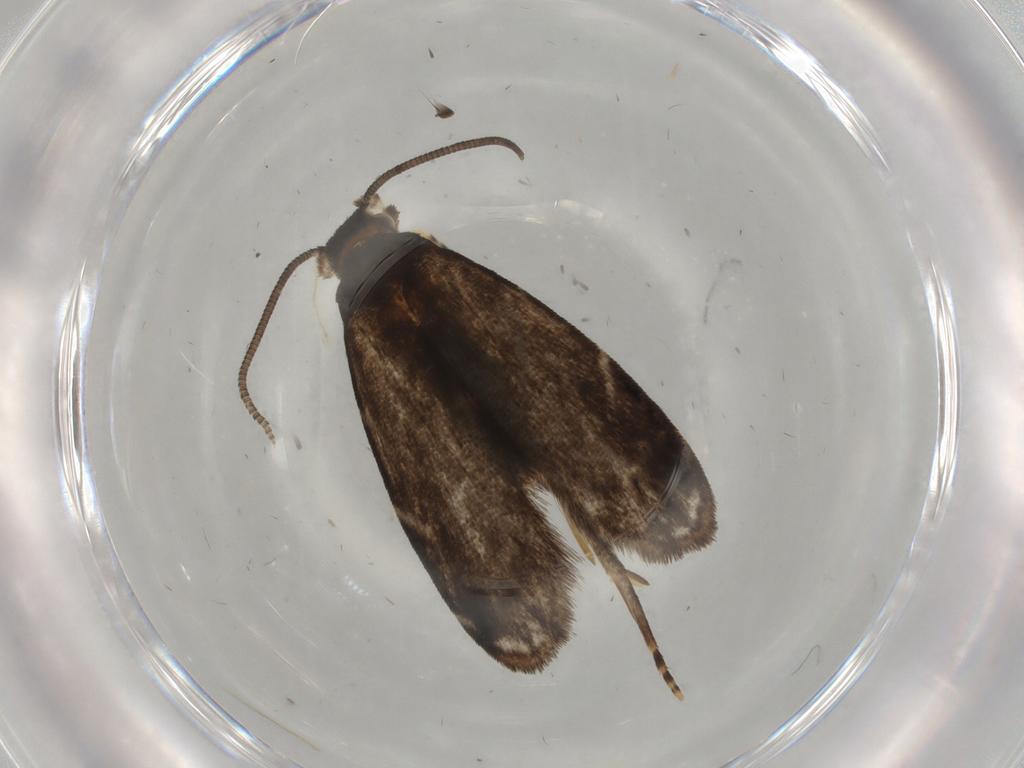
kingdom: Animalia
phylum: Arthropoda
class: Insecta
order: Lepidoptera
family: Dryadaulidae
